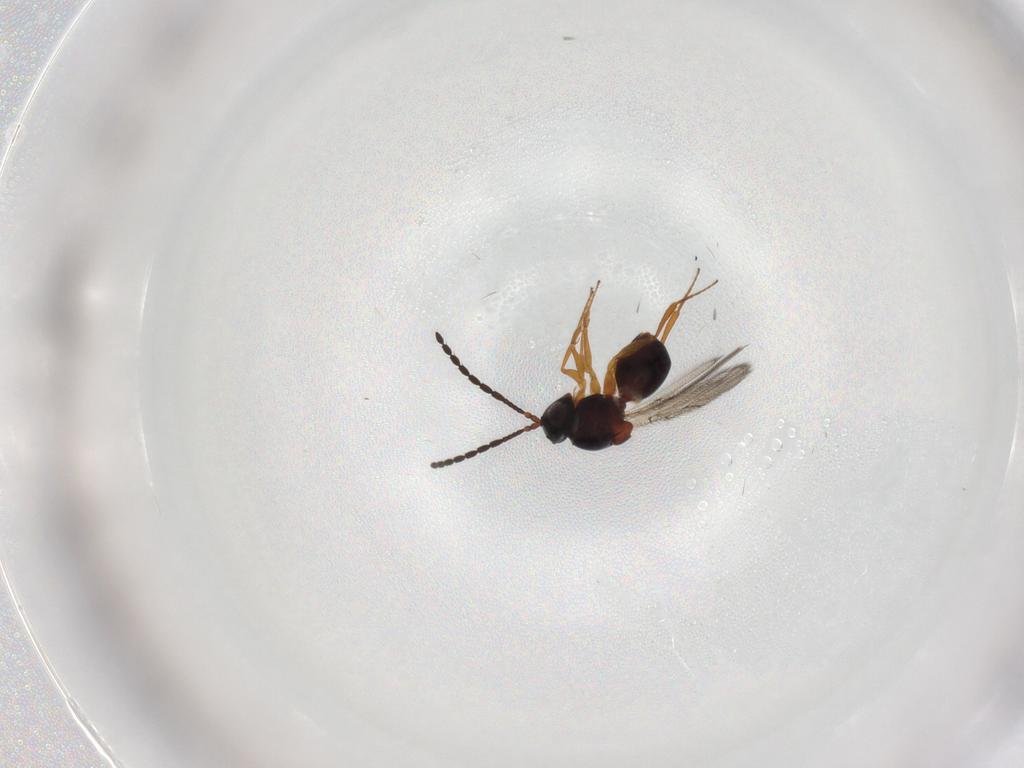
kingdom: Animalia
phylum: Arthropoda
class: Insecta
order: Hymenoptera
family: Figitidae
